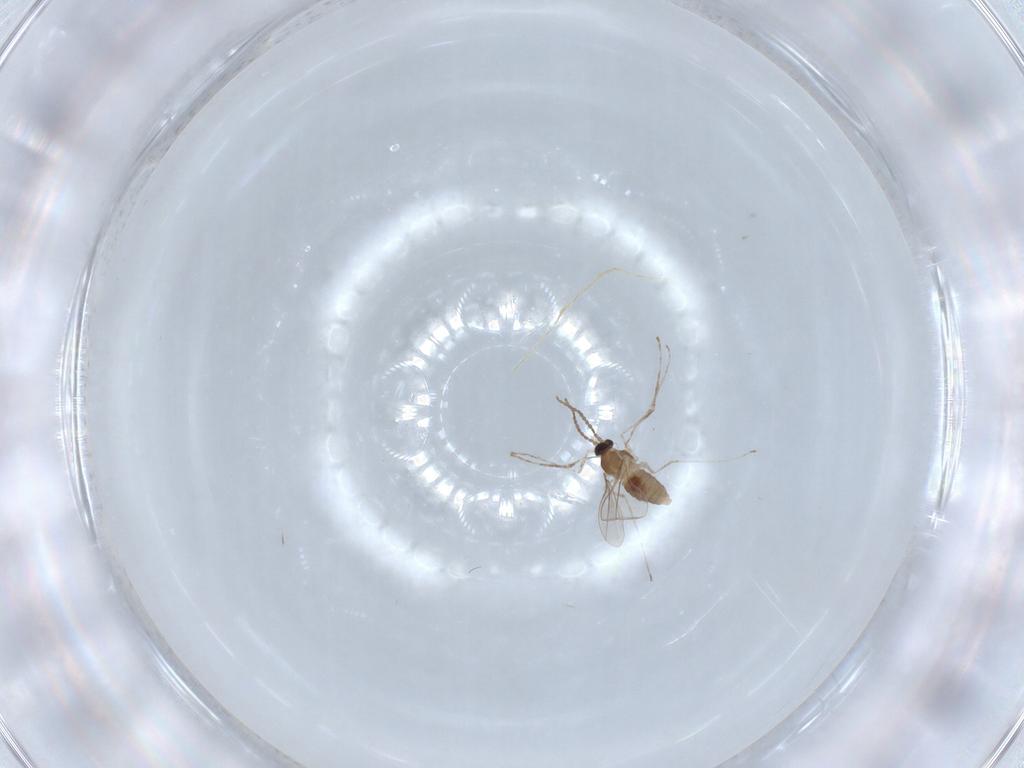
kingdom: Animalia
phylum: Arthropoda
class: Insecta
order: Diptera
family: Cecidomyiidae
